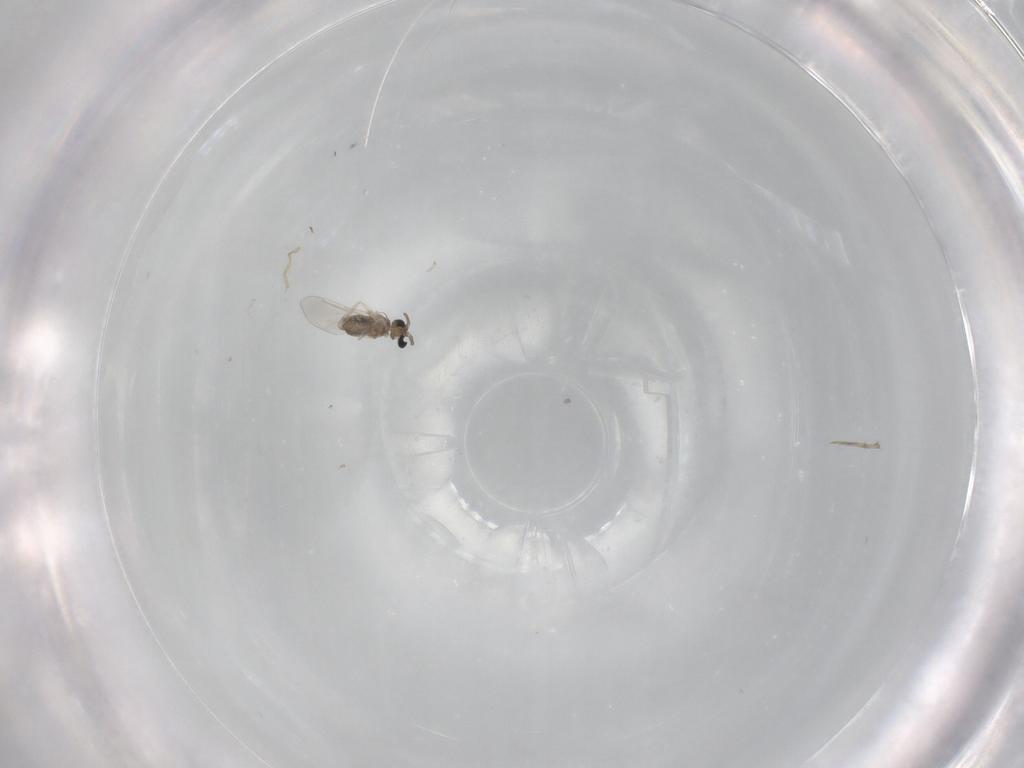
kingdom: Animalia
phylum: Arthropoda
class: Insecta
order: Diptera
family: Cecidomyiidae
